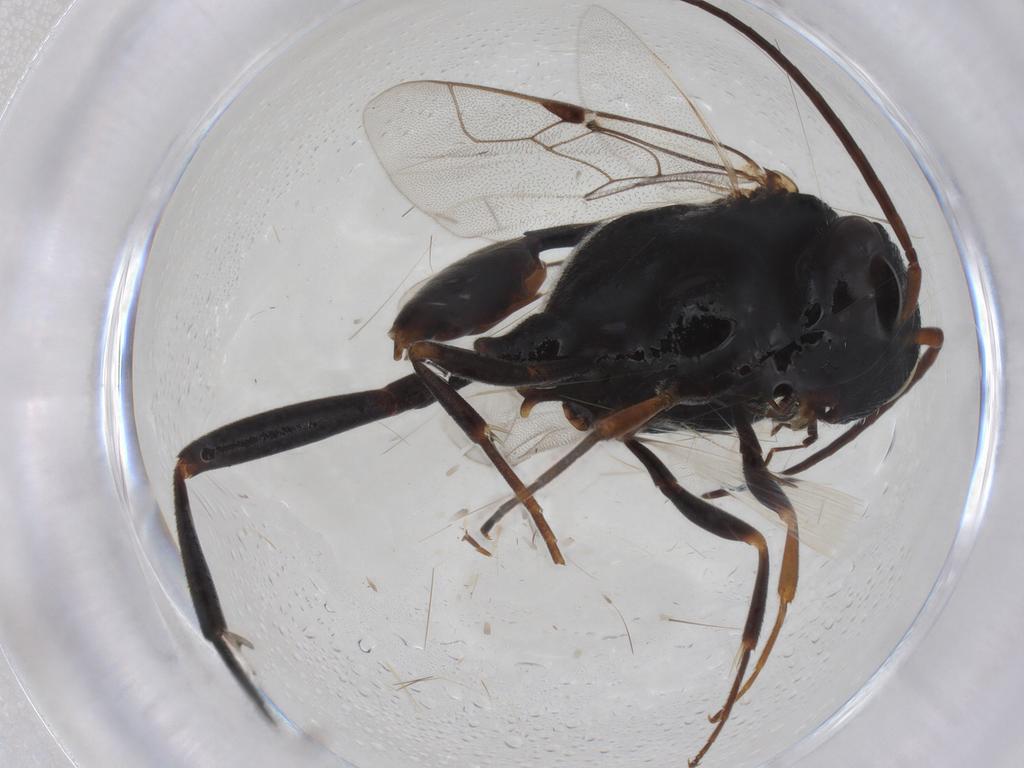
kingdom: Animalia
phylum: Arthropoda
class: Insecta
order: Hymenoptera
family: Evaniidae
